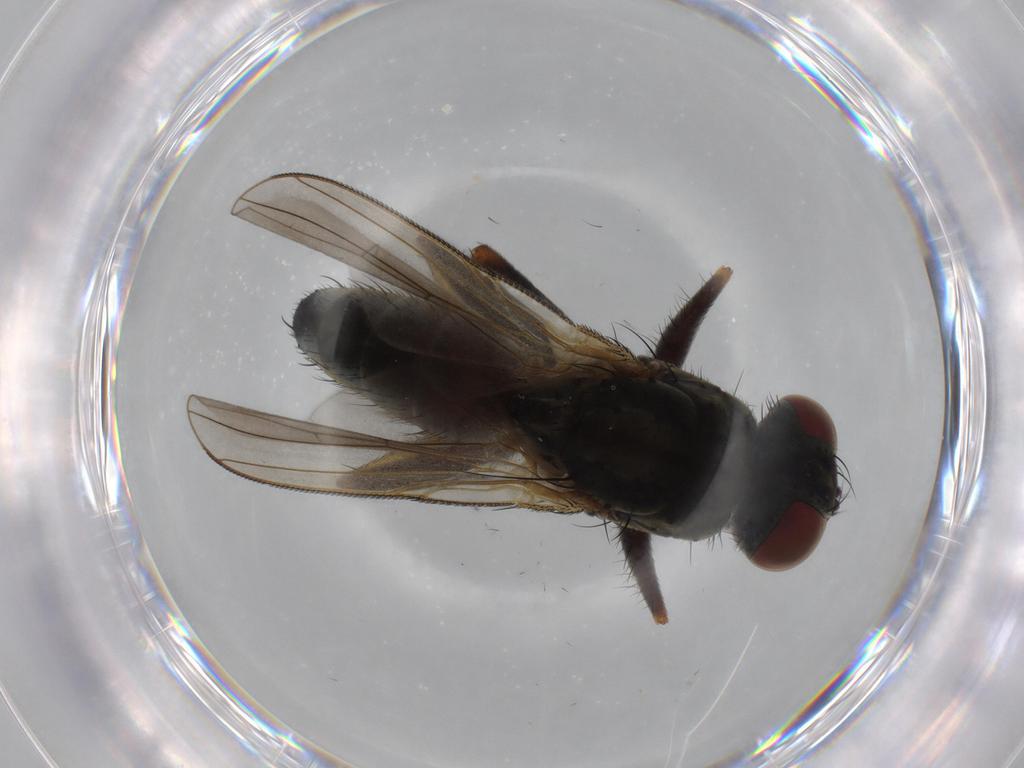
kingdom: Animalia
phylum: Arthropoda
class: Insecta
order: Diptera
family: Muscidae
